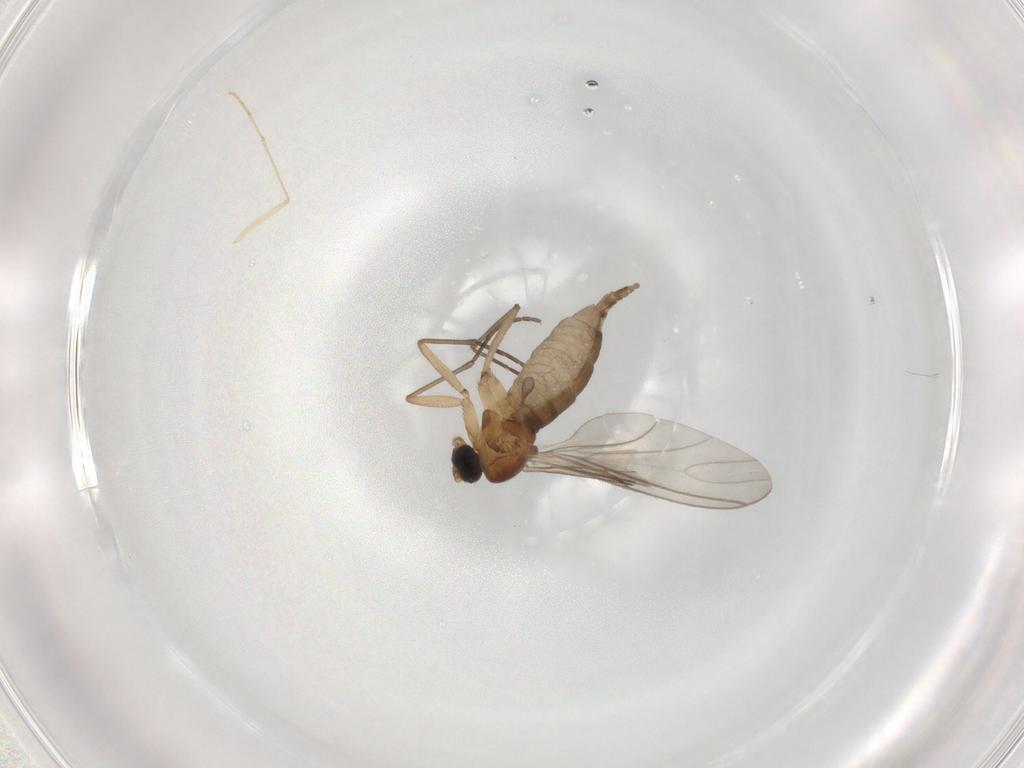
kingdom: Animalia
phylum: Arthropoda
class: Insecta
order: Diptera
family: Sciaridae
